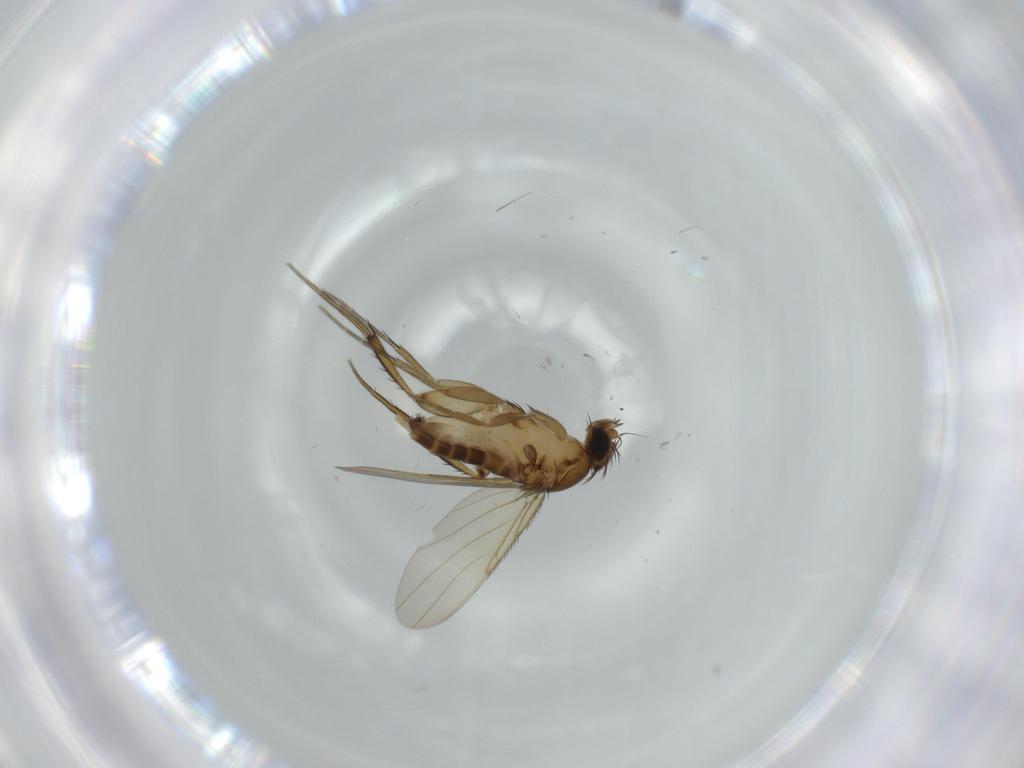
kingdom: Animalia
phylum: Arthropoda
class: Insecta
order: Diptera
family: Phoridae
